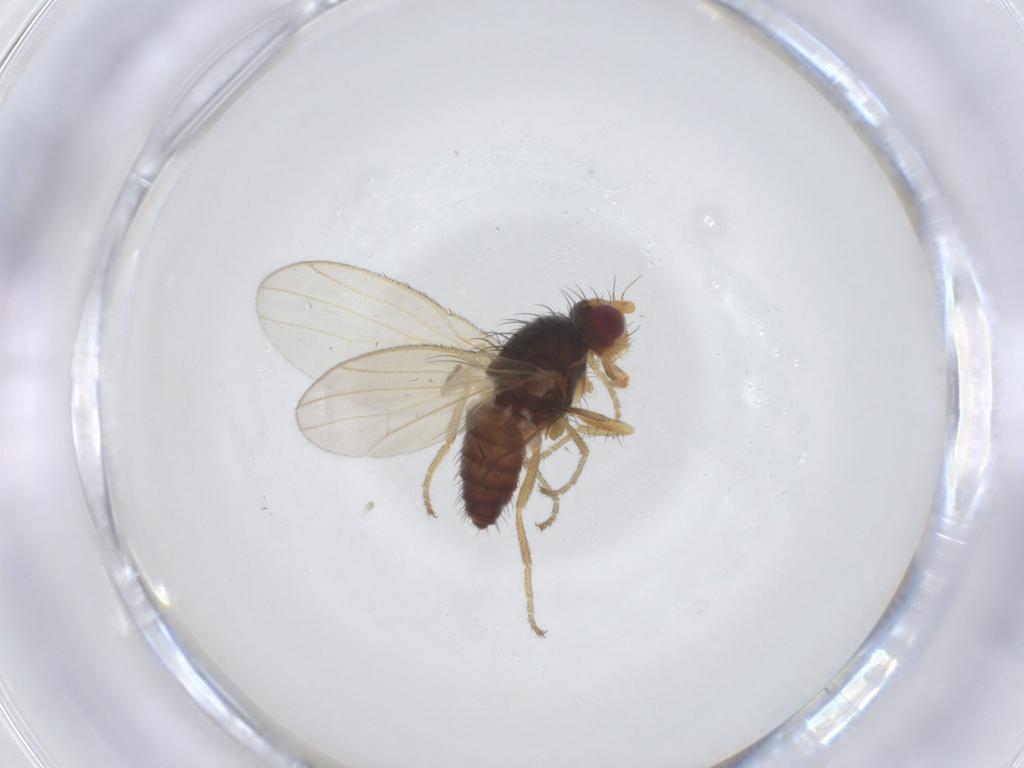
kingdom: Animalia
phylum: Arthropoda
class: Insecta
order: Diptera
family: Heleomyzidae
